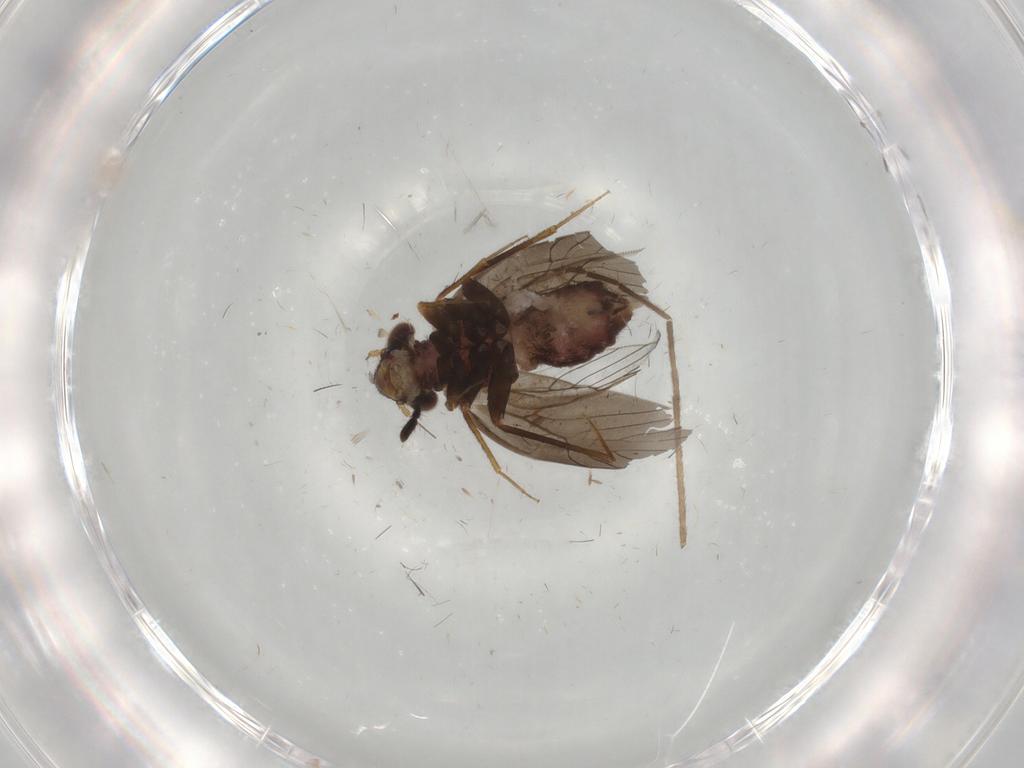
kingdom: Animalia
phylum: Arthropoda
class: Insecta
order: Psocodea
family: Lepidopsocidae
